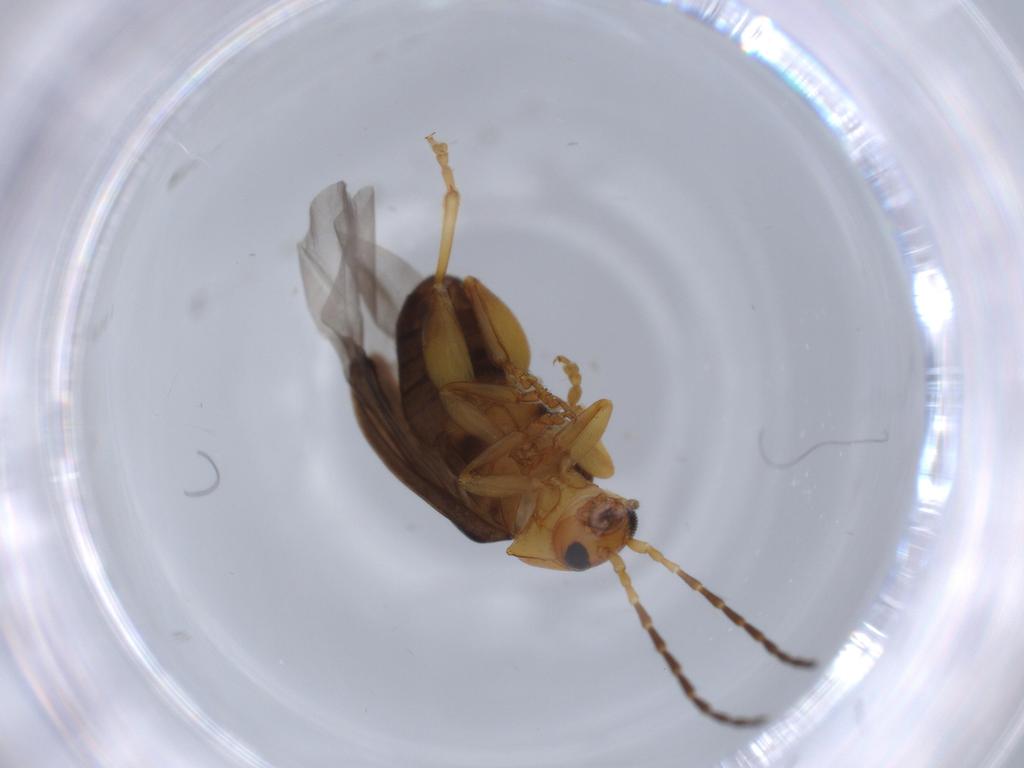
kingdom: Animalia
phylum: Arthropoda
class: Insecta
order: Coleoptera
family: Chrysomelidae
